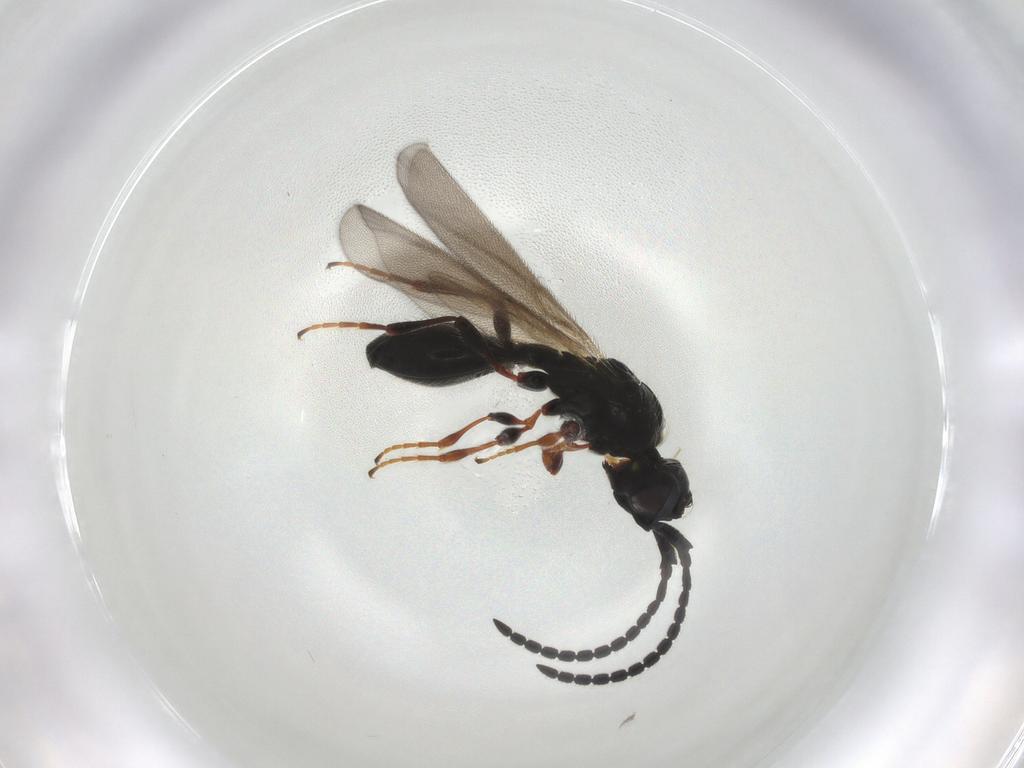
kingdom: Animalia
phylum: Arthropoda
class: Insecta
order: Hymenoptera
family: Diapriidae
